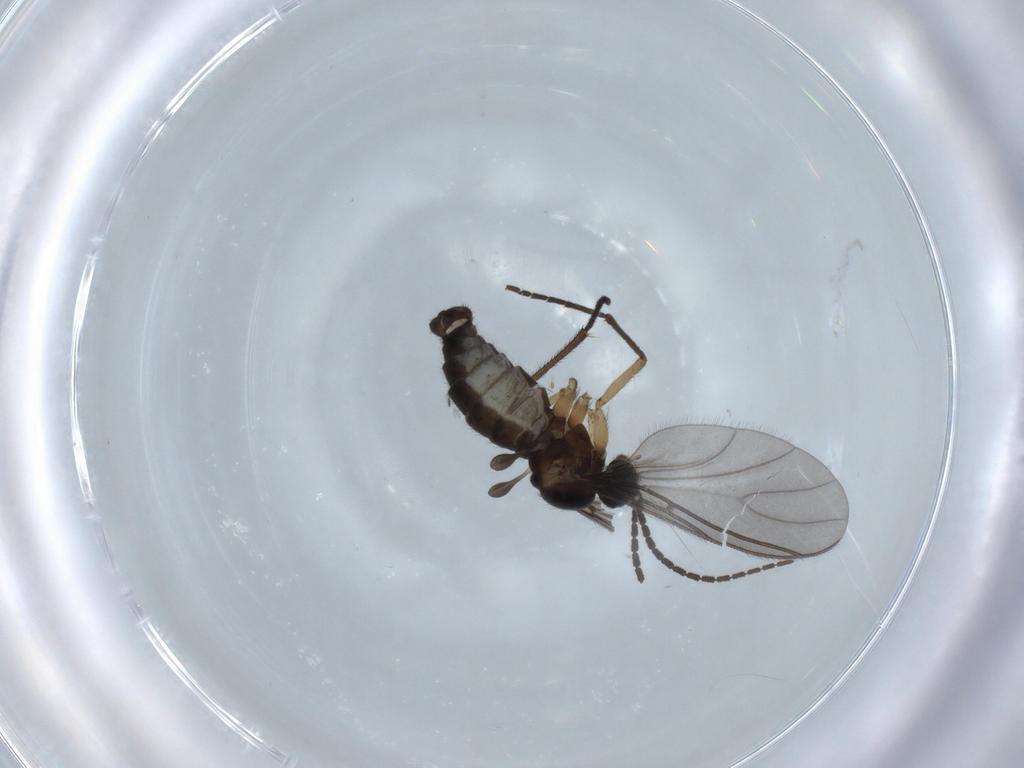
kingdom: Animalia
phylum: Arthropoda
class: Insecta
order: Diptera
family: Sciaridae
